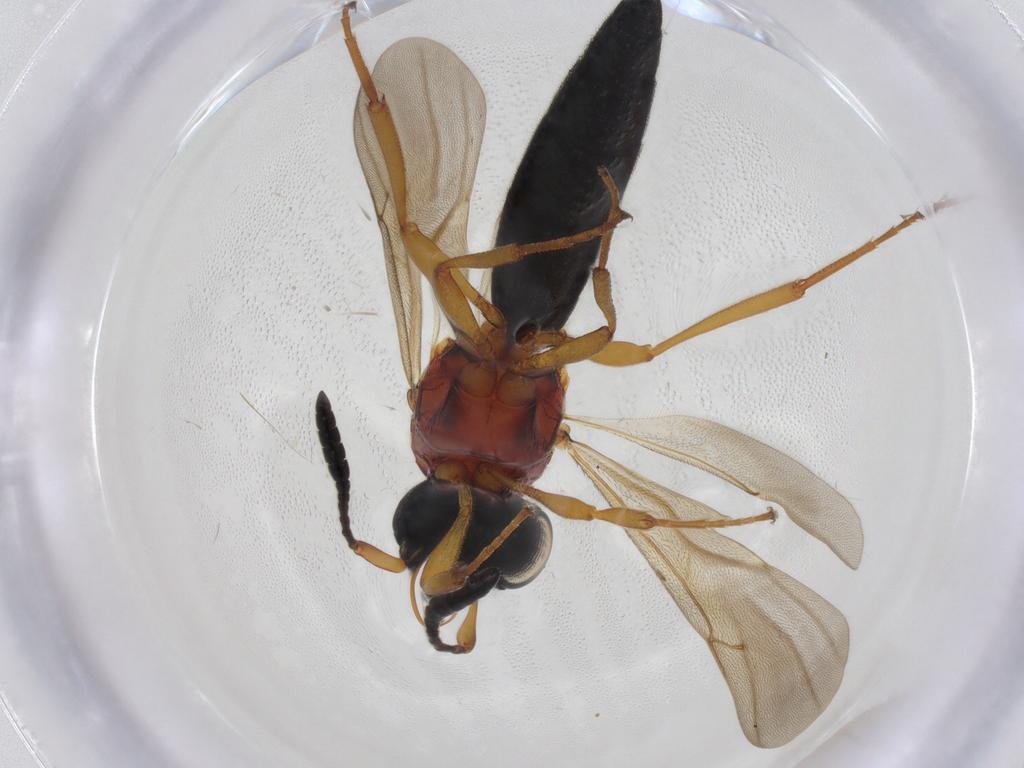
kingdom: Animalia
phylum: Arthropoda
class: Insecta
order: Hymenoptera
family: Scelionidae
